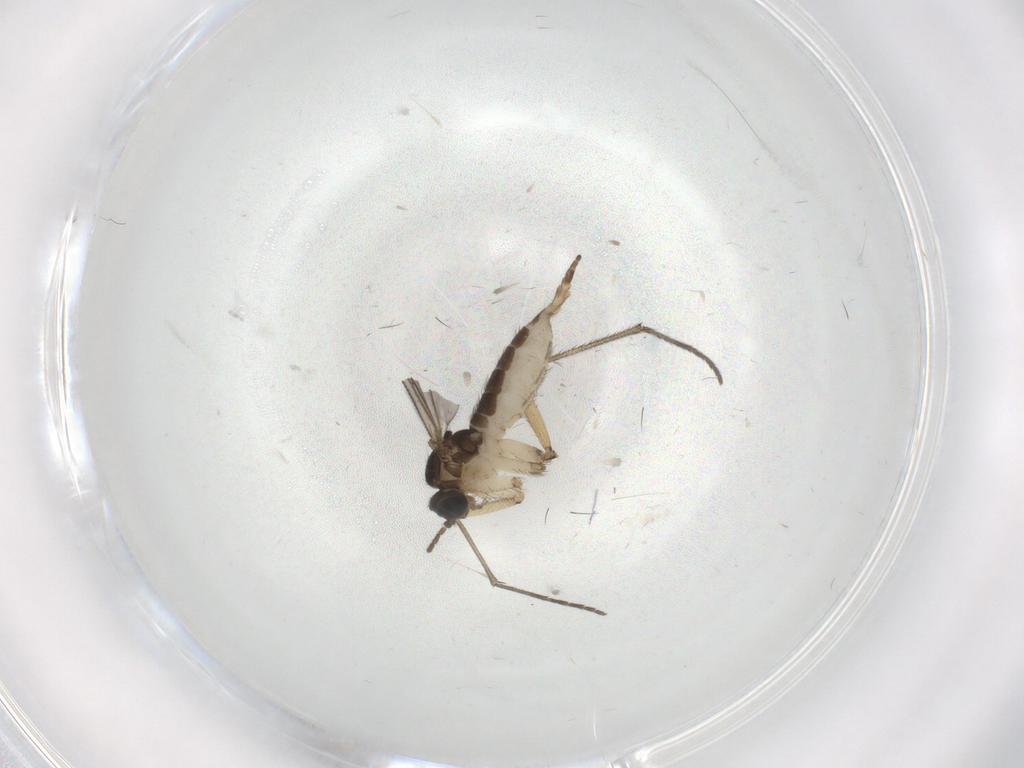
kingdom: Animalia
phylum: Arthropoda
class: Insecta
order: Diptera
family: Sciaridae
